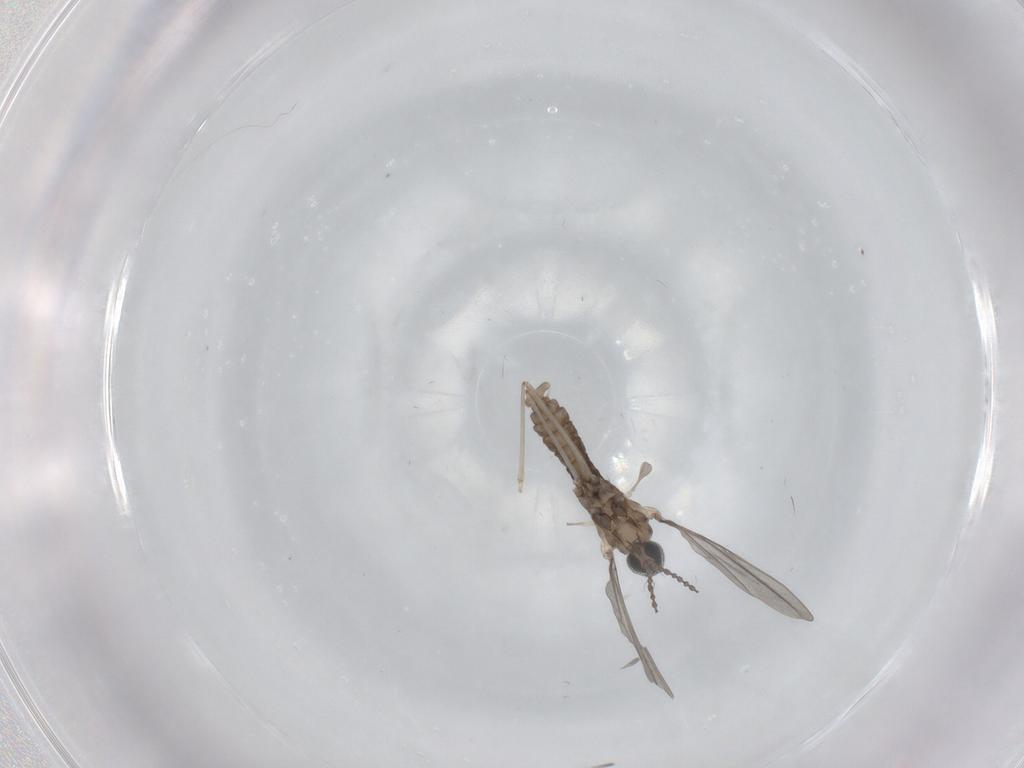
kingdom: Animalia
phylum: Arthropoda
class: Insecta
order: Diptera
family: Cecidomyiidae
